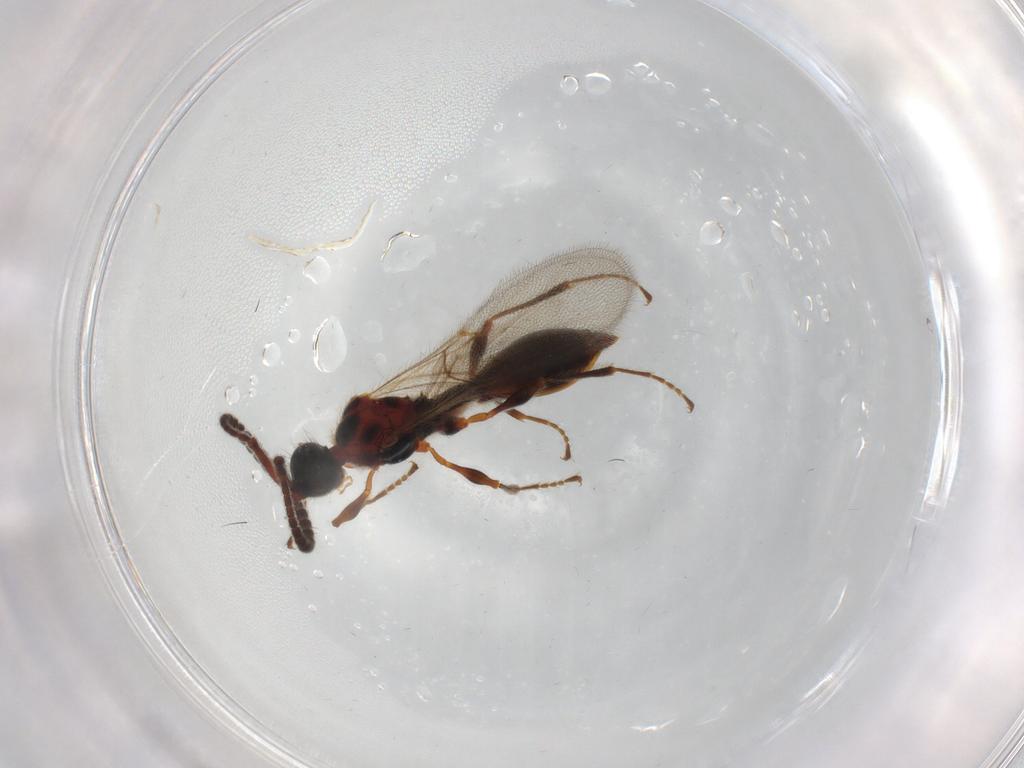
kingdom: Animalia
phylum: Arthropoda
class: Insecta
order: Hymenoptera
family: Diapriidae
